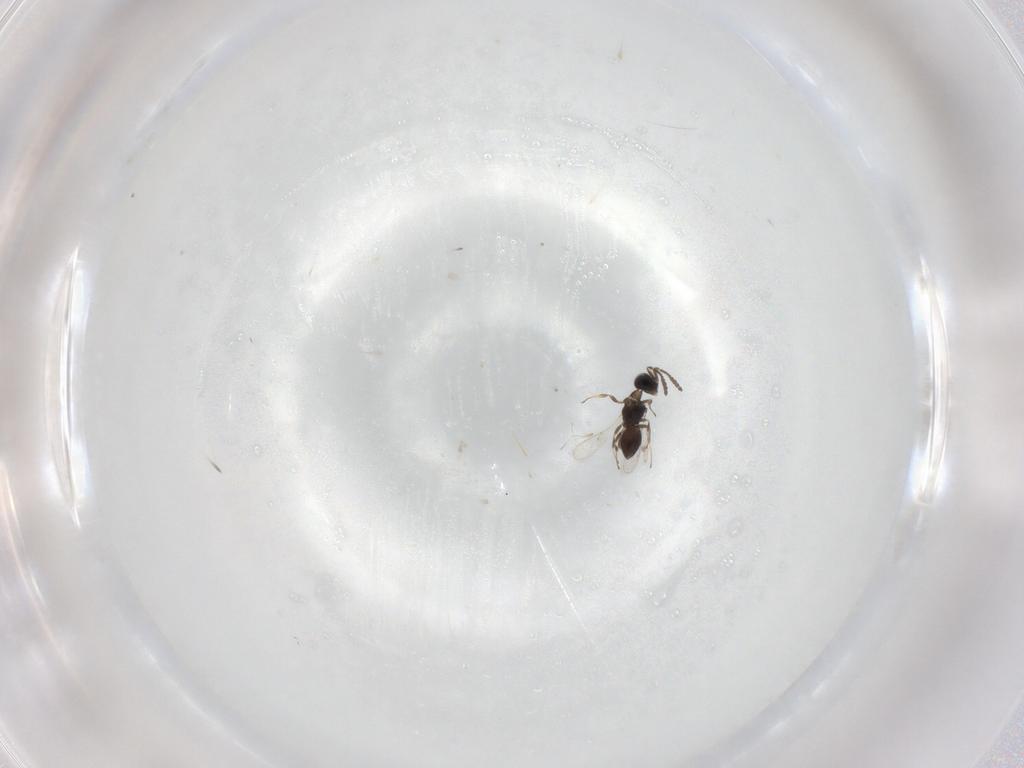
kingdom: Animalia
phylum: Arthropoda
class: Insecta
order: Hymenoptera
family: Scelionidae
